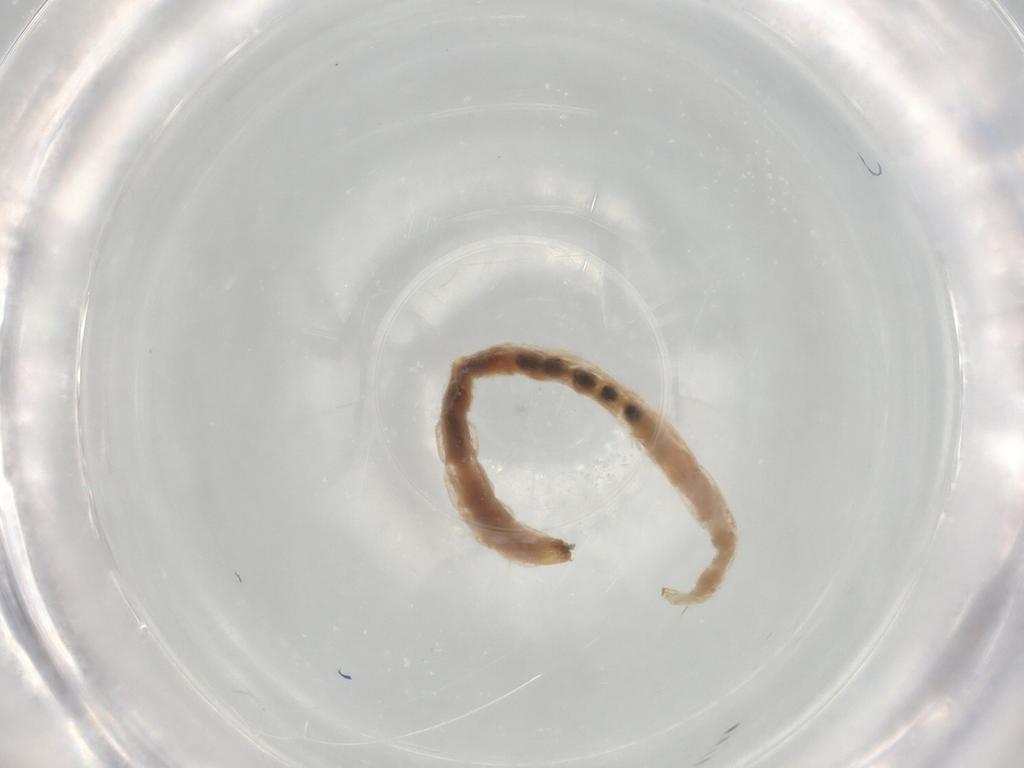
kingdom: Animalia
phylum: Arthropoda
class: Insecta
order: Diptera
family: Chironomidae
